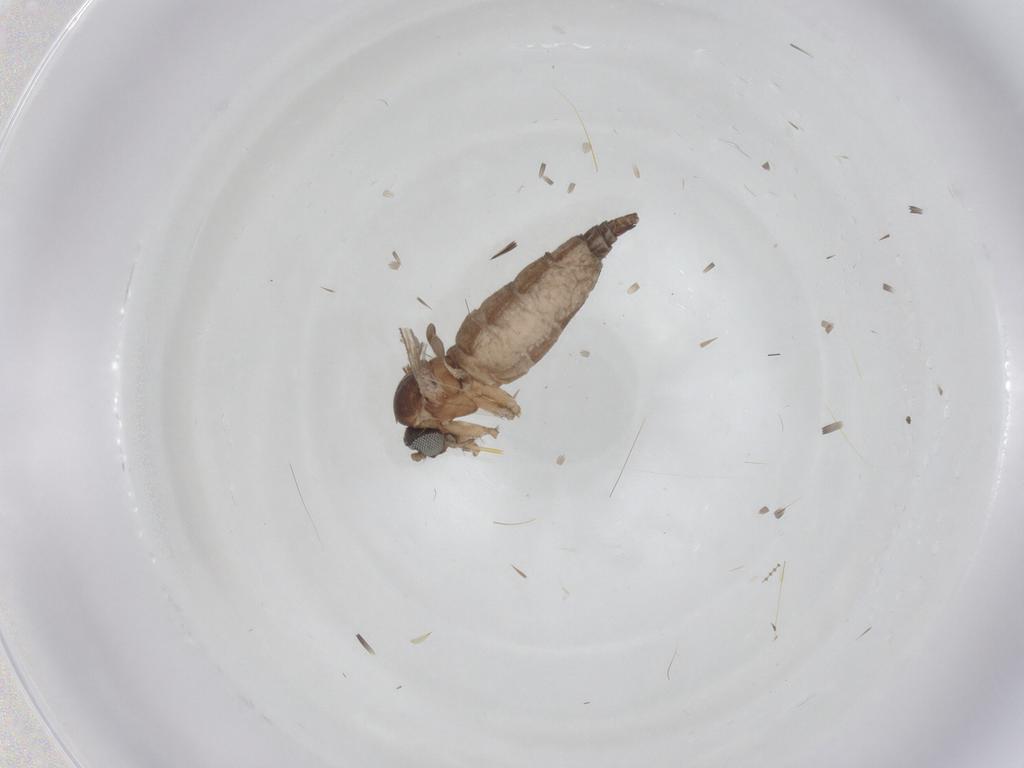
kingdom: Animalia
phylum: Arthropoda
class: Insecta
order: Diptera
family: Sciaridae
